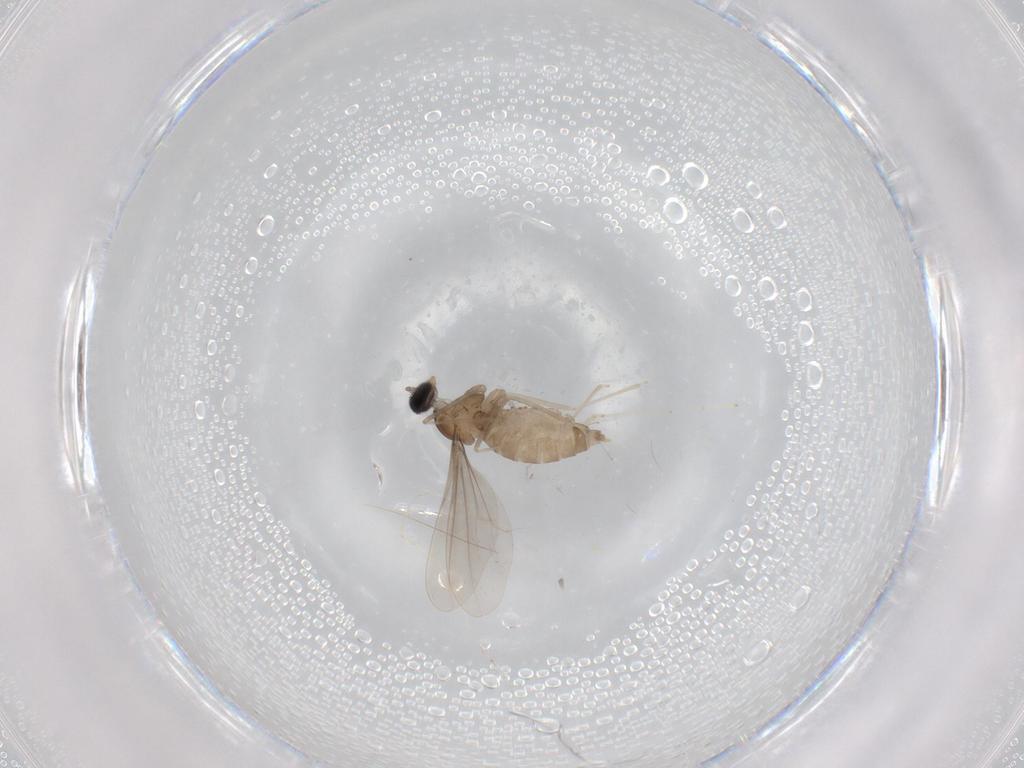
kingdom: Animalia
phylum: Arthropoda
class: Insecta
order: Diptera
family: Cecidomyiidae
